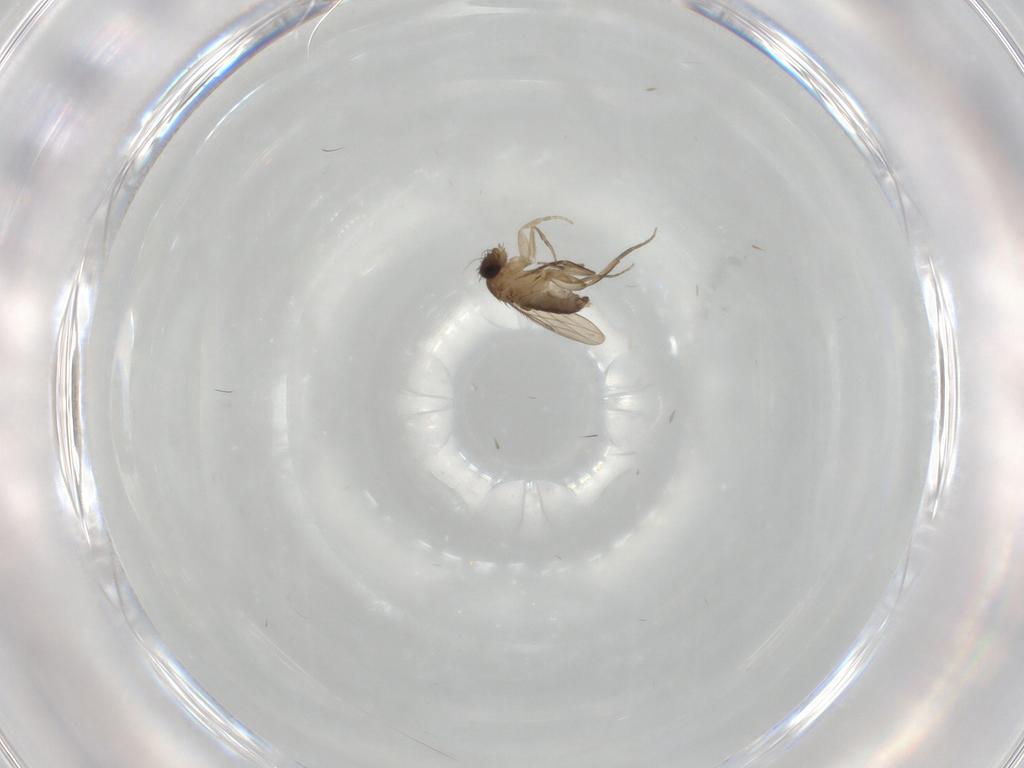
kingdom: Animalia
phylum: Arthropoda
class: Insecta
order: Diptera
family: Phoridae
